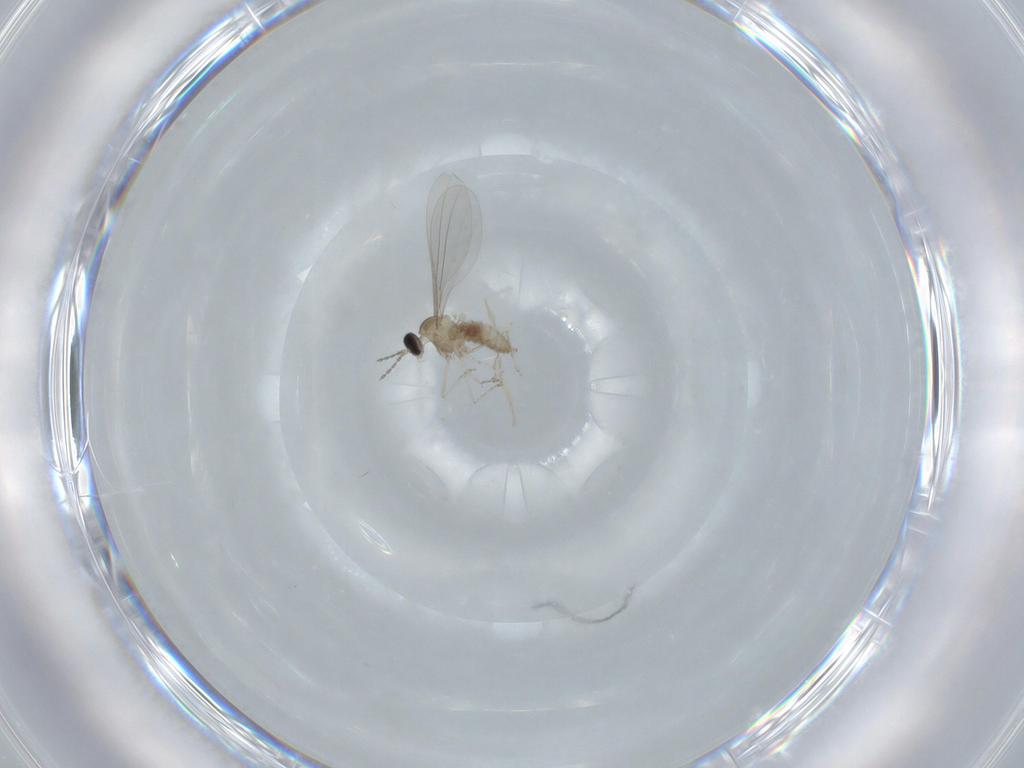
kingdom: Animalia
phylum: Arthropoda
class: Insecta
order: Diptera
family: Cecidomyiidae
